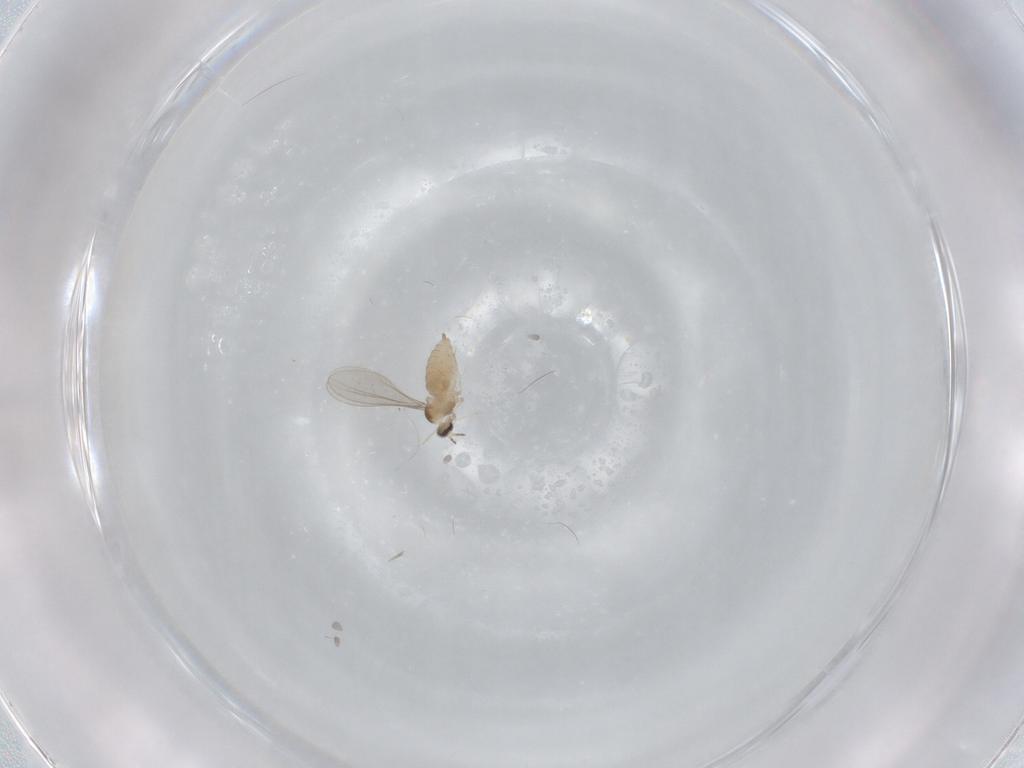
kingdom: Animalia
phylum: Arthropoda
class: Insecta
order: Diptera
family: Cecidomyiidae
